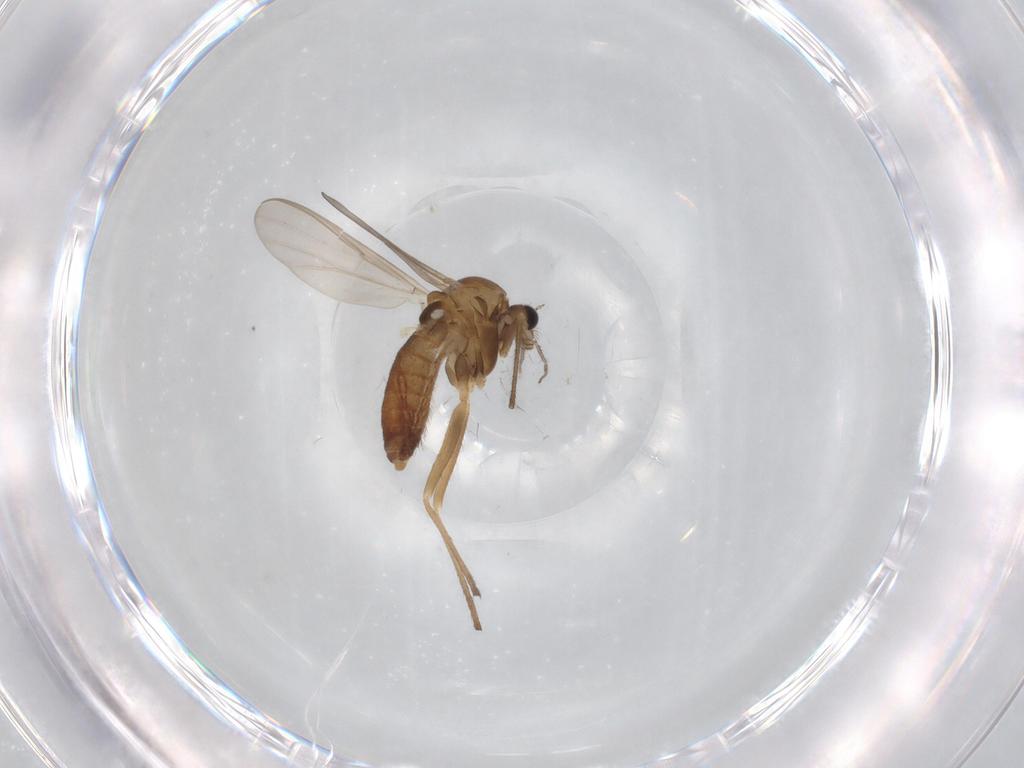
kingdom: Animalia
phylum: Arthropoda
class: Insecta
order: Diptera
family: Chironomidae
